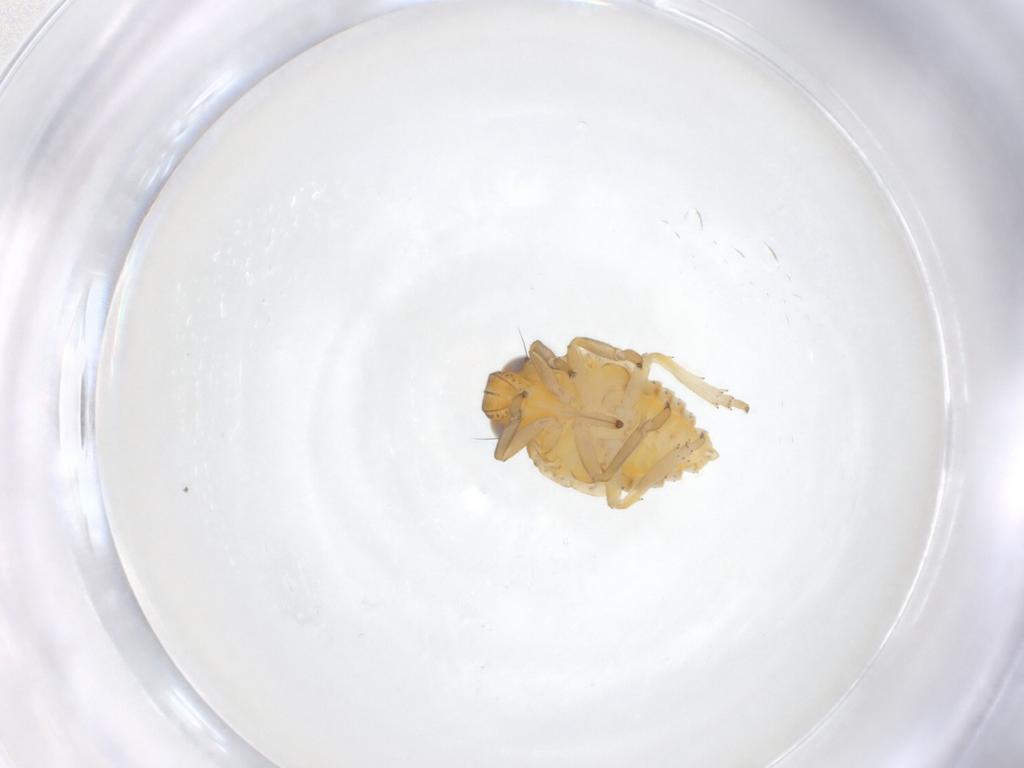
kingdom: Animalia
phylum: Arthropoda
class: Insecta
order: Hemiptera
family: Issidae
